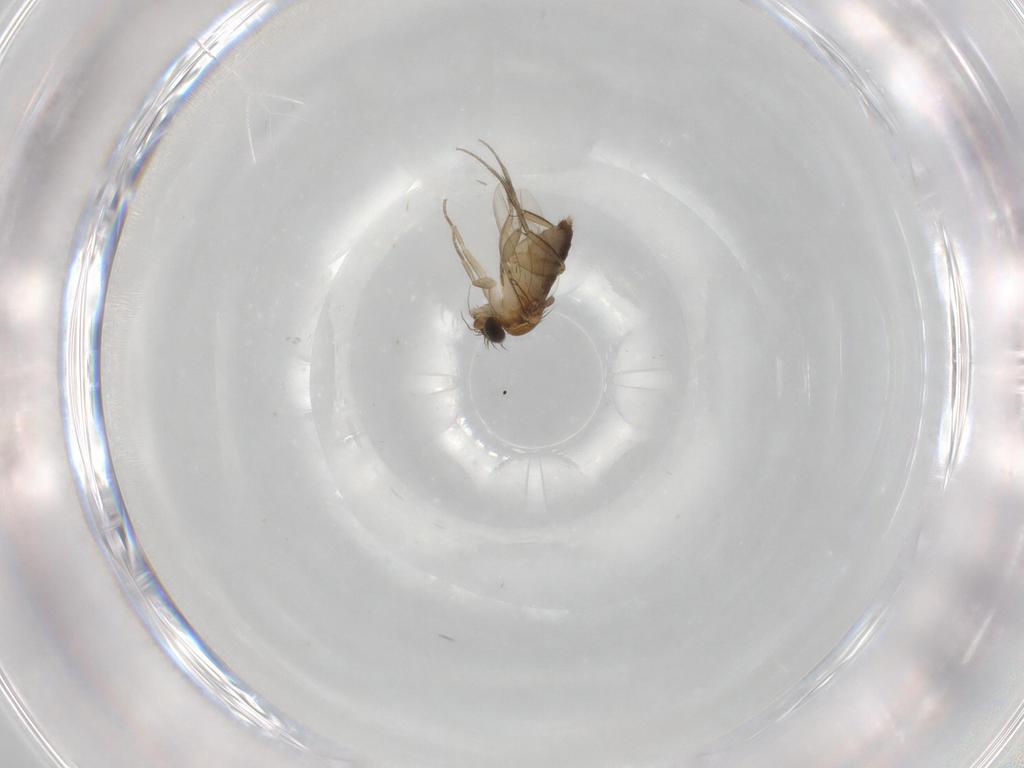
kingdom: Animalia
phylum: Arthropoda
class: Insecta
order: Diptera
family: Phoridae
